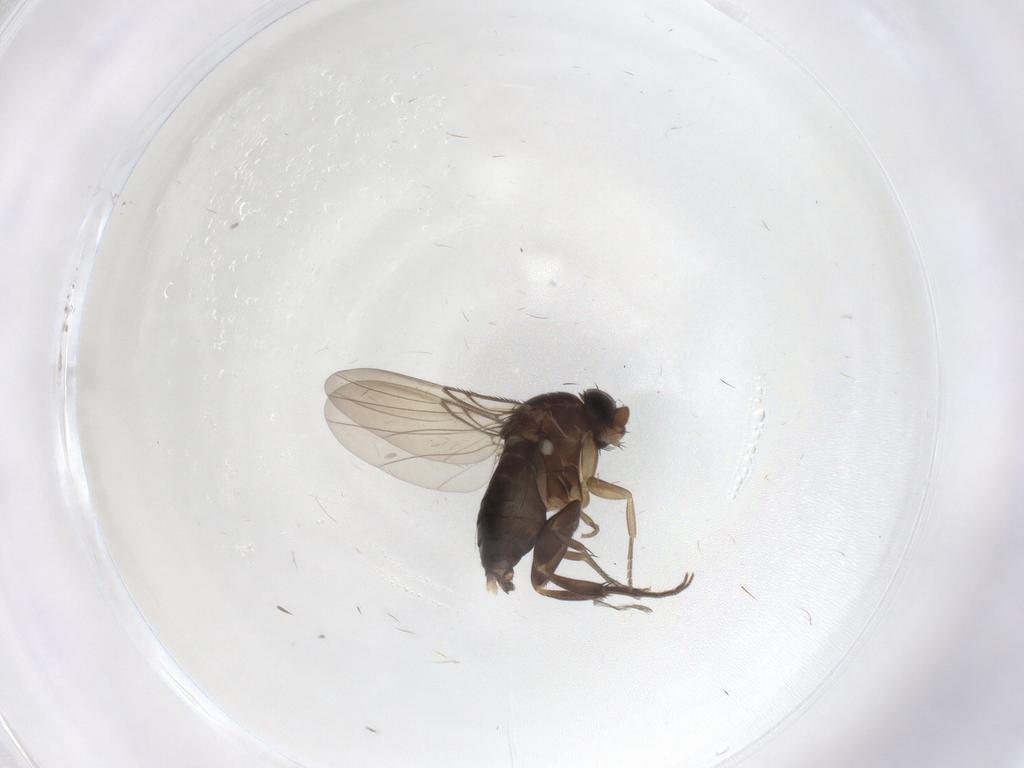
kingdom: Animalia
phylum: Arthropoda
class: Insecta
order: Diptera
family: Phoridae
